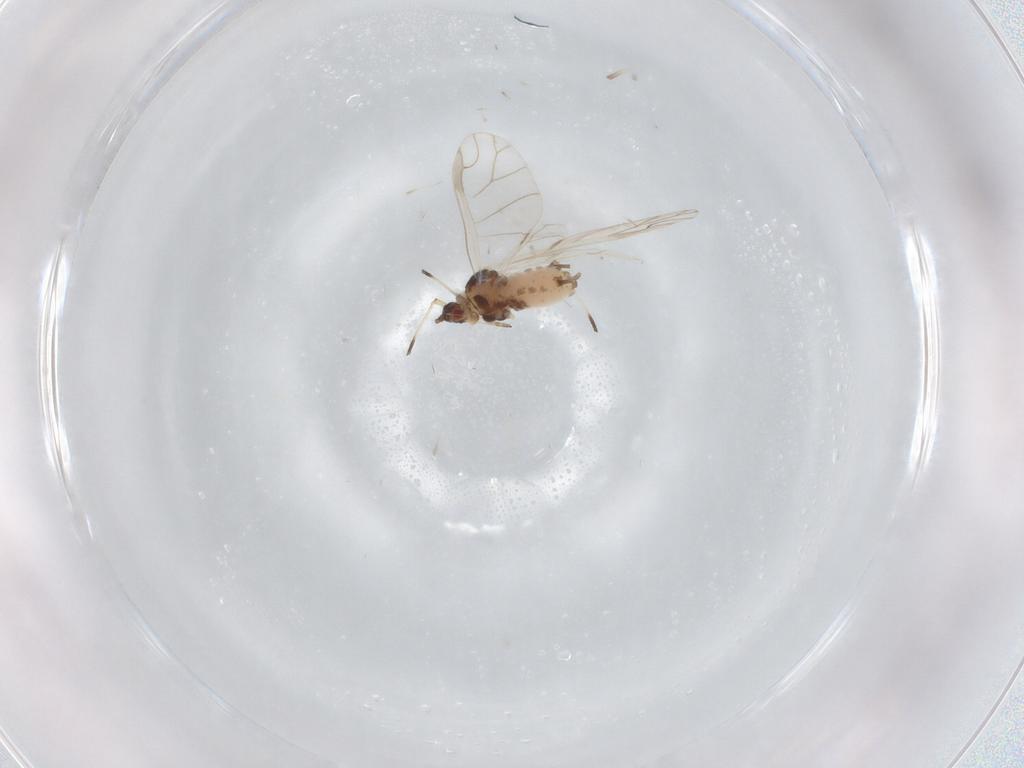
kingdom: Animalia
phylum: Arthropoda
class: Insecta
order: Hemiptera
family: Aphididae
